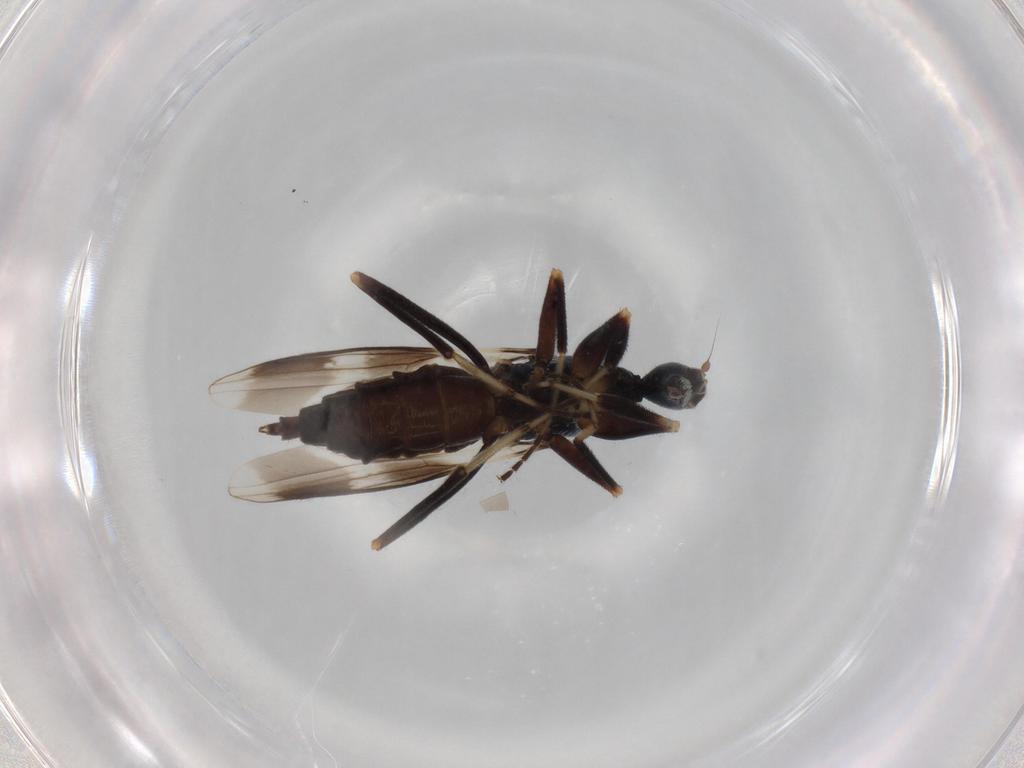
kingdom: Animalia
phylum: Arthropoda
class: Insecta
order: Diptera
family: Hybotidae
